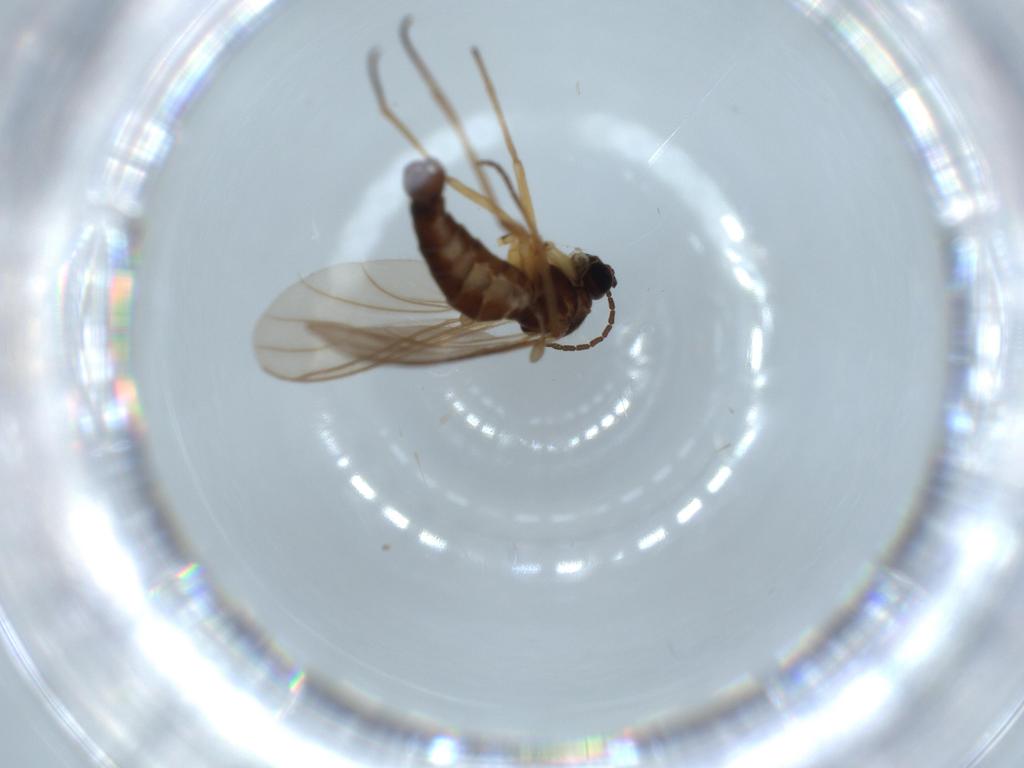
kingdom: Animalia
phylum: Arthropoda
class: Insecta
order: Diptera
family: Sciaridae
